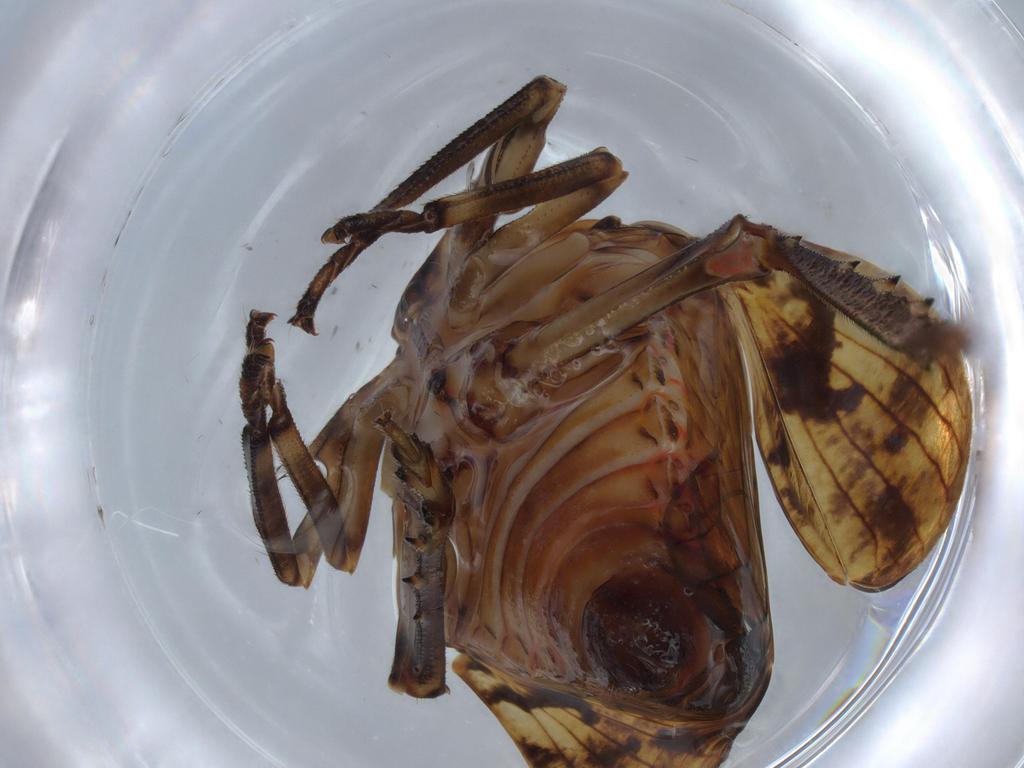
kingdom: Animalia
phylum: Arthropoda
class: Insecta
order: Hemiptera
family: Issidae
